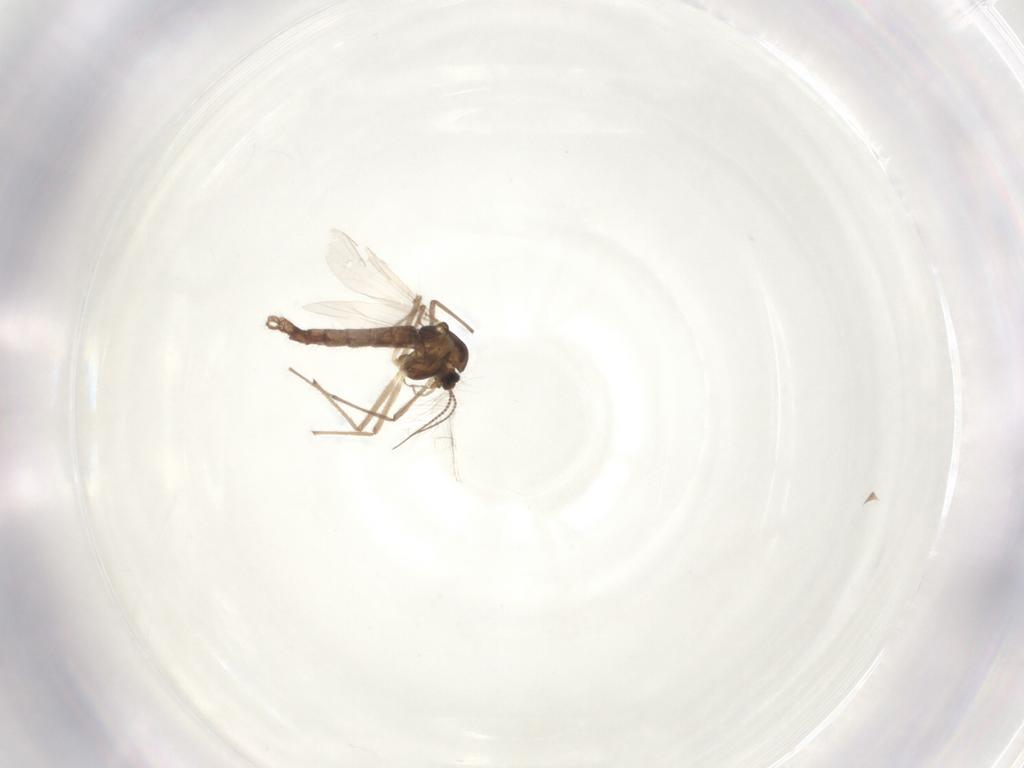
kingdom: Animalia
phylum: Arthropoda
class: Insecta
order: Diptera
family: Chironomidae
